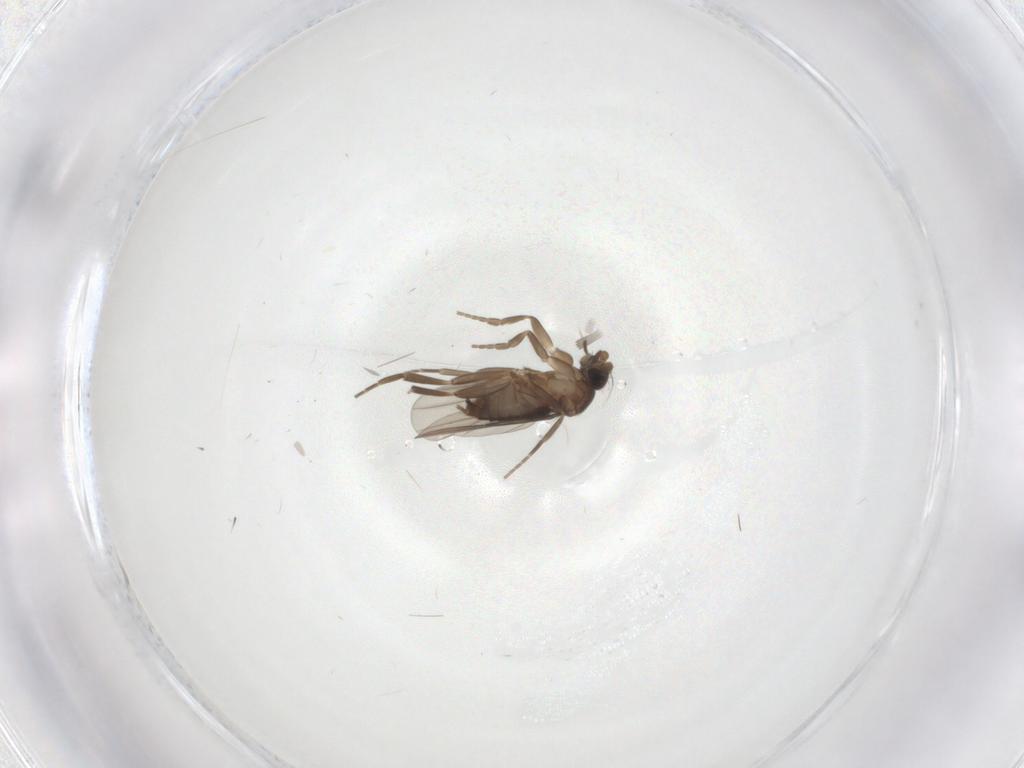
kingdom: Animalia
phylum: Arthropoda
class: Insecta
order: Diptera
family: Phoridae
